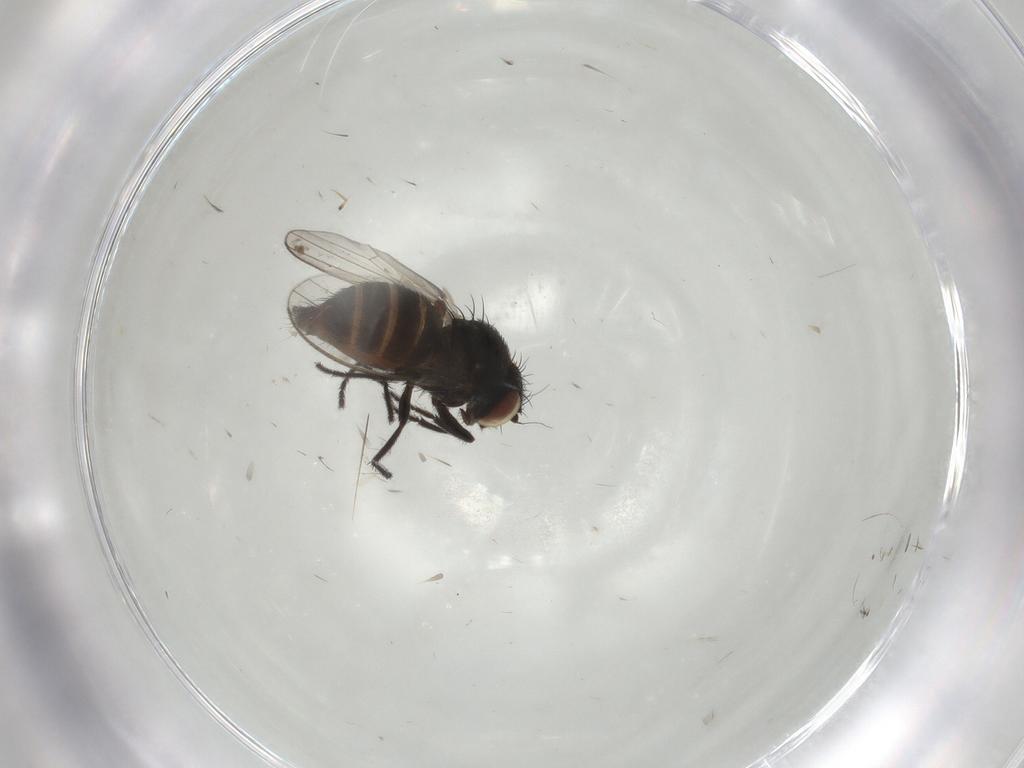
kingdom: Animalia
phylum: Arthropoda
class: Insecta
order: Diptera
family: Milichiidae
